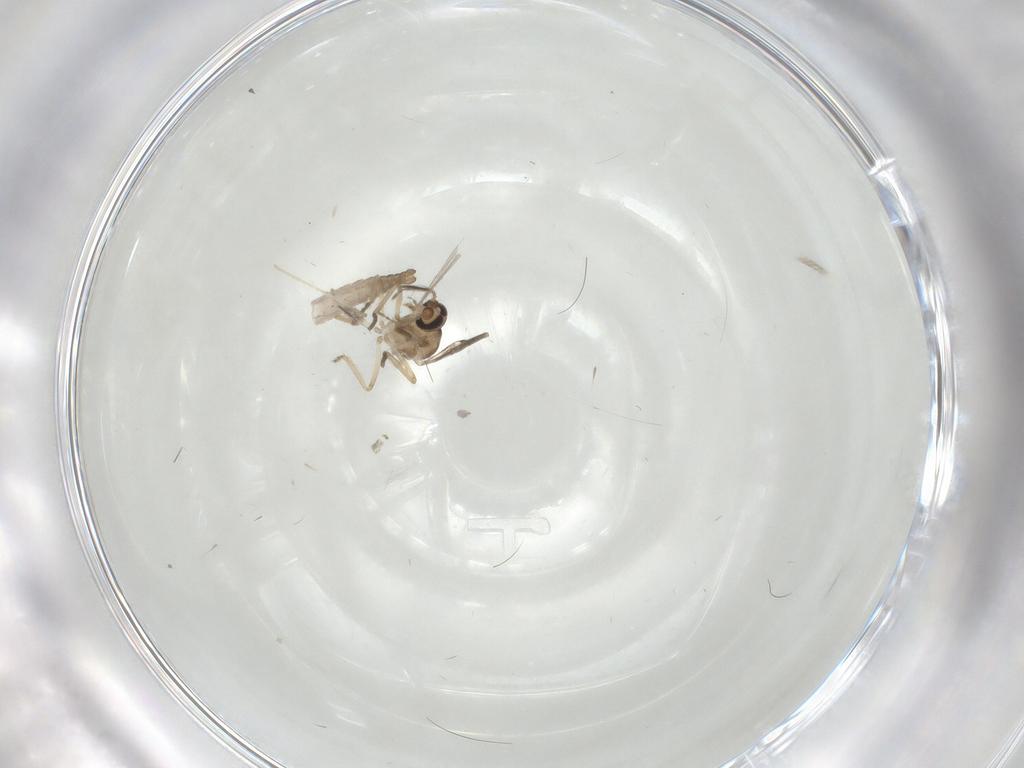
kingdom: Animalia
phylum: Arthropoda
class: Insecta
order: Diptera
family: Ceratopogonidae
